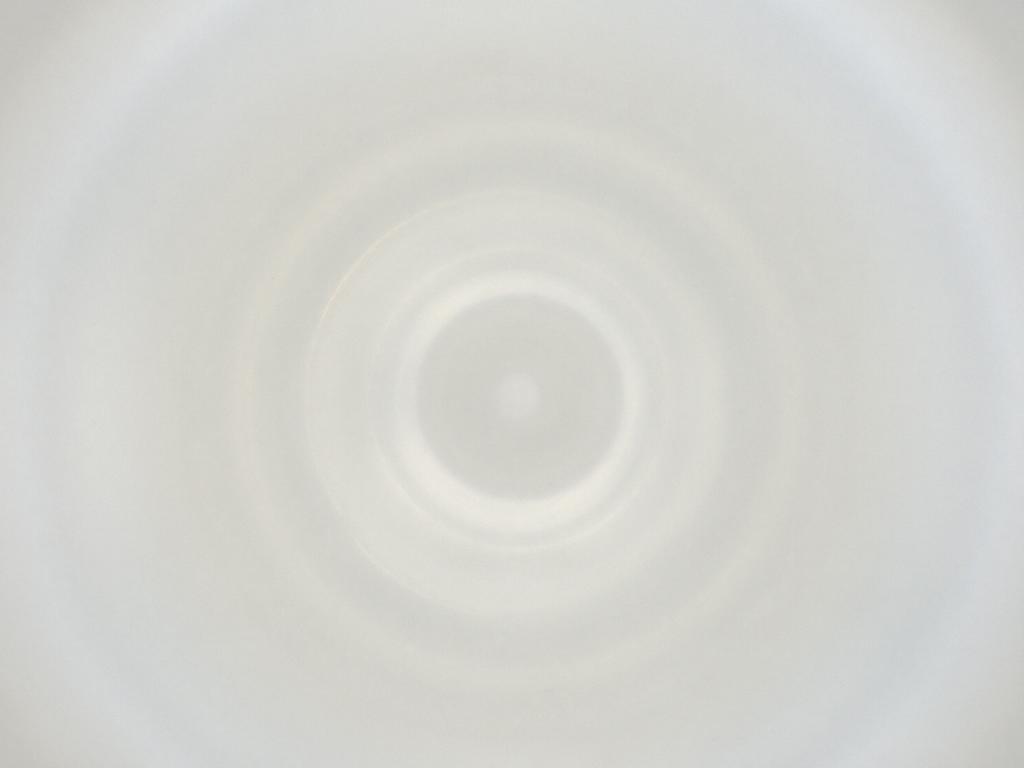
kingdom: Animalia
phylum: Arthropoda
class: Insecta
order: Diptera
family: Cecidomyiidae
